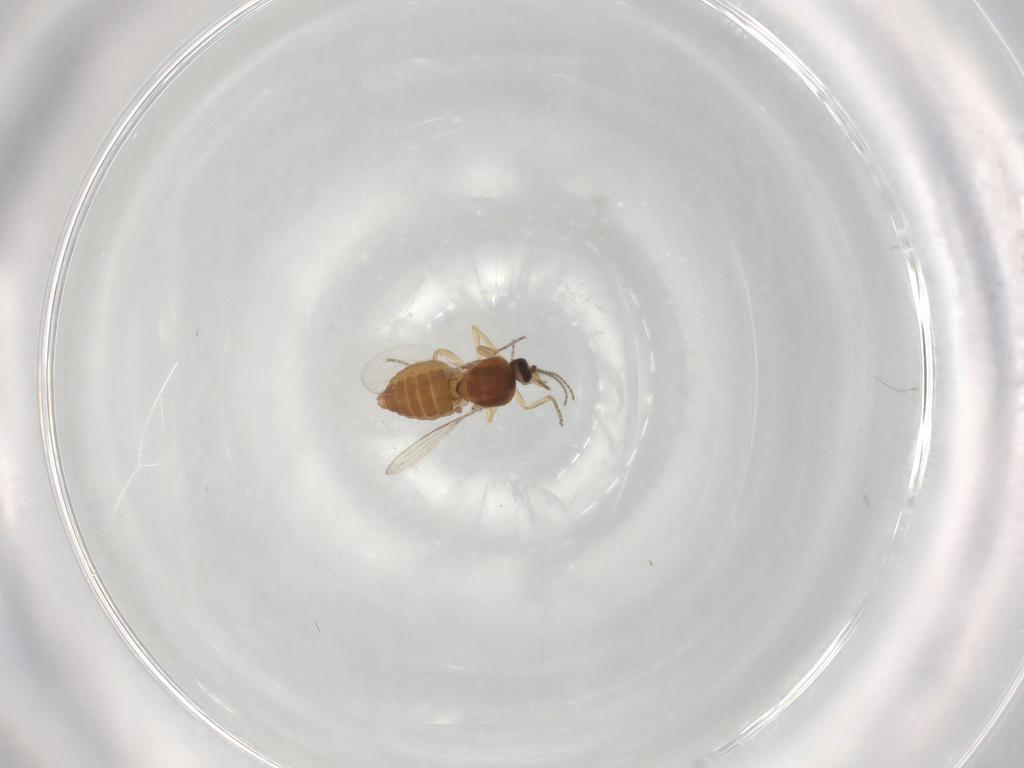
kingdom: Animalia
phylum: Arthropoda
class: Insecta
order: Diptera
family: Ceratopogonidae
